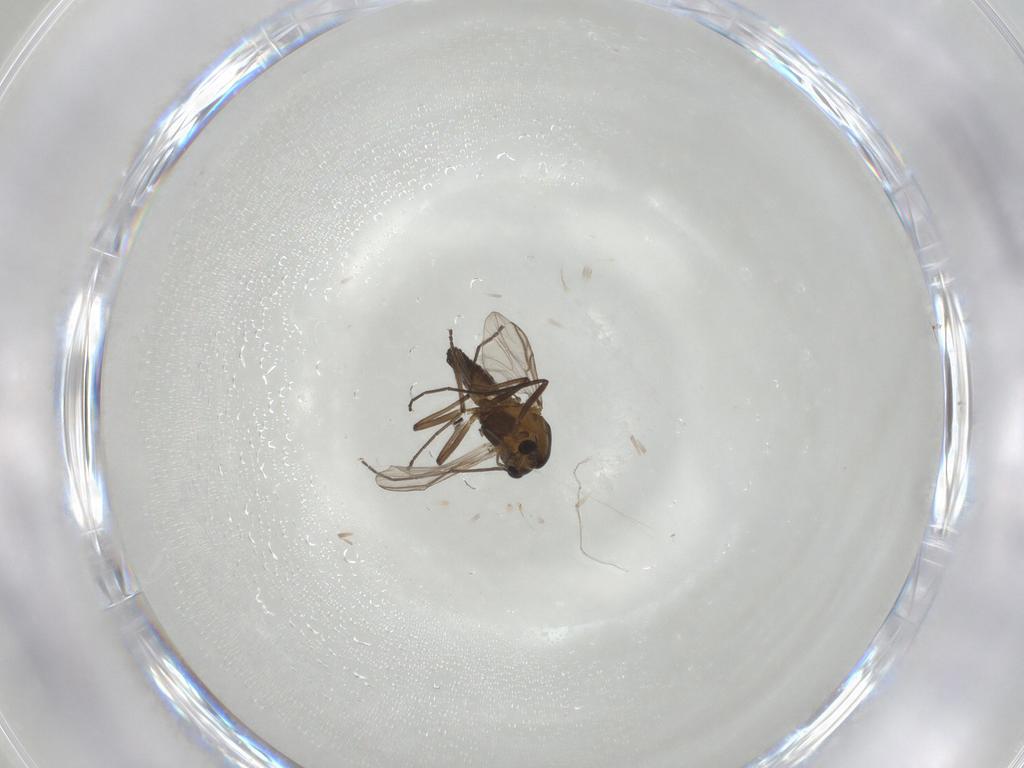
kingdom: Animalia
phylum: Arthropoda
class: Insecta
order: Diptera
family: Chironomidae
